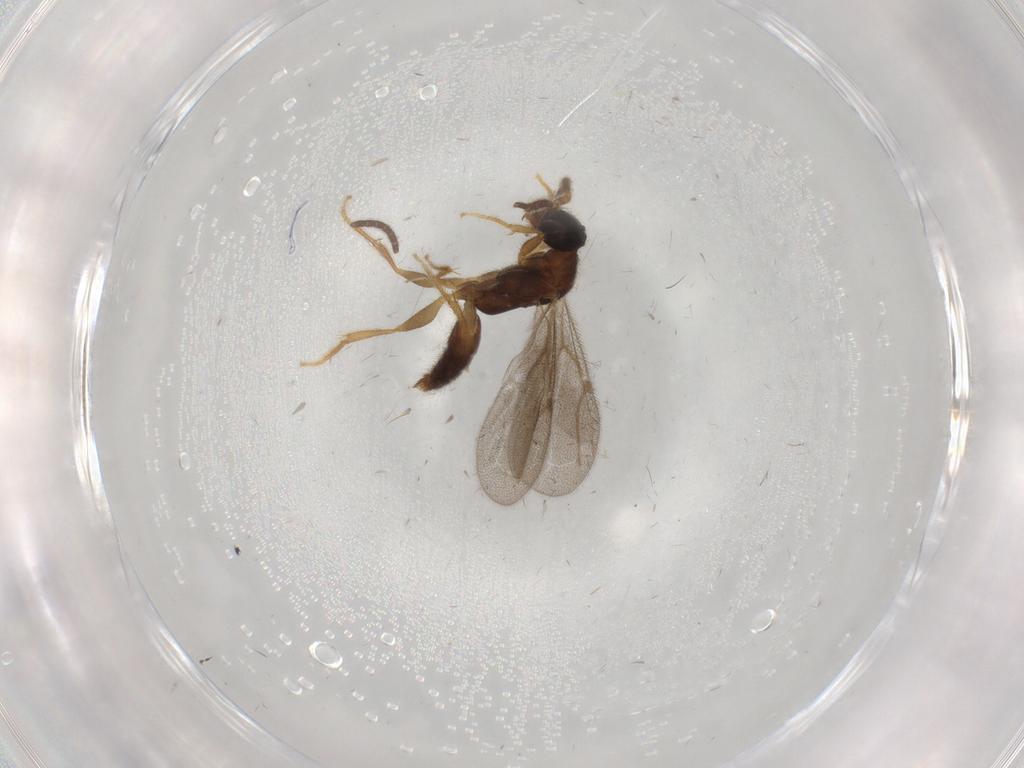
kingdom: Animalia
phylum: Arthropoda
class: Insecta
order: Hymenoptera
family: Bethylidae
